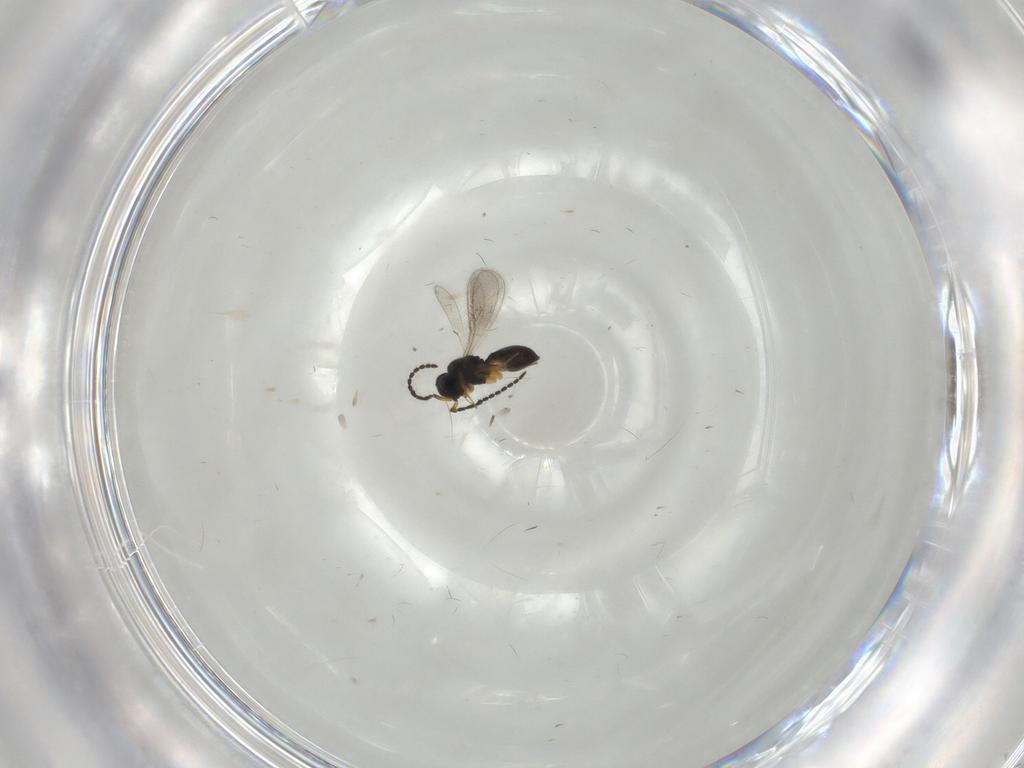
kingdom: Animalia
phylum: Arthropoda
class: Insecta
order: Hymenoptera
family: Scelionidae
